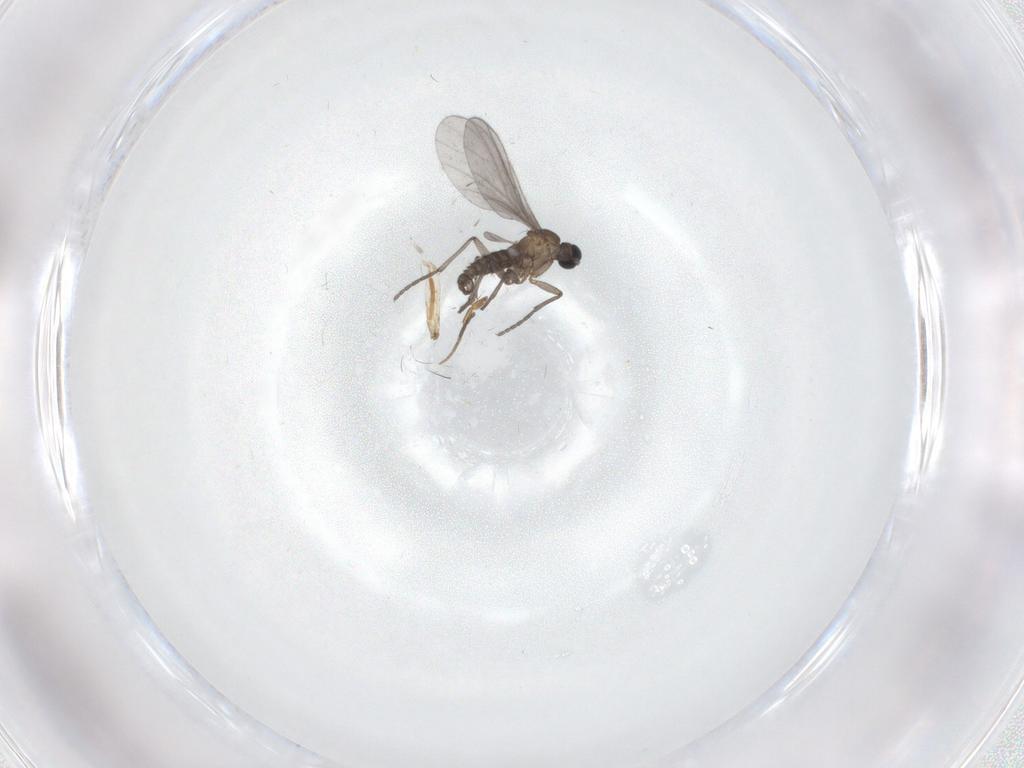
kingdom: Animalia
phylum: Arthropoda
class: Insecta
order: Diptera
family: Sciaridae
